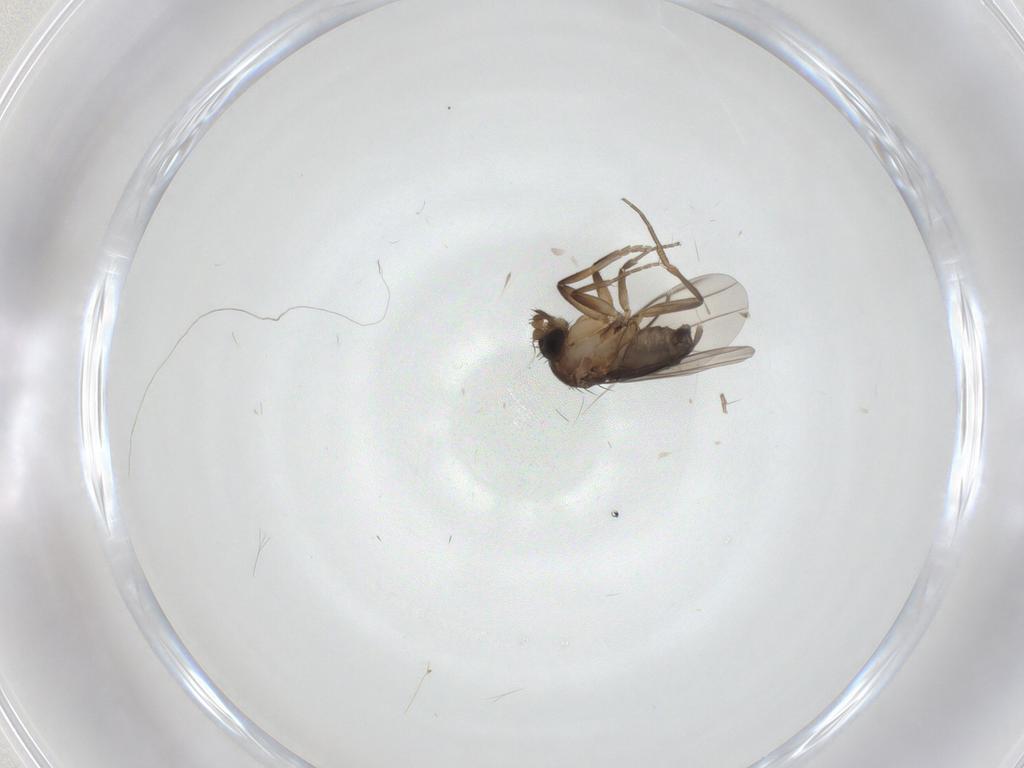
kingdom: Animalia
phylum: Arthropoda
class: Insecta
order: Diptera
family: Phoridae
